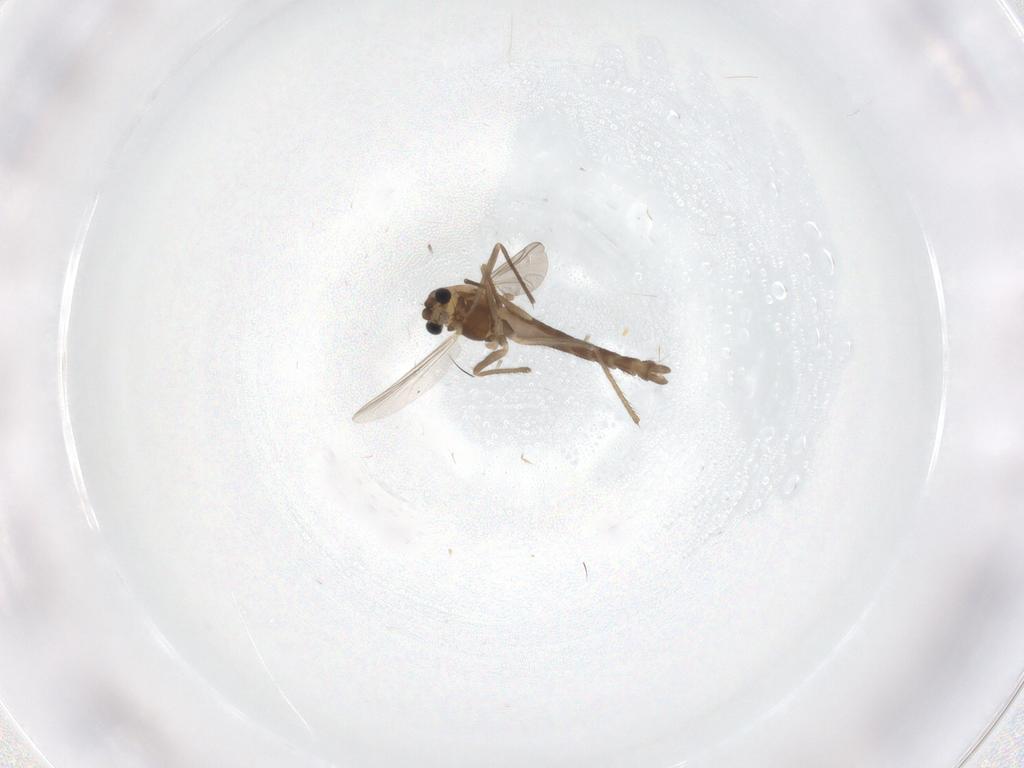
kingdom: Animalia
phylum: Arthropoda
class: Insecta
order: Diptera
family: Chironomidae
